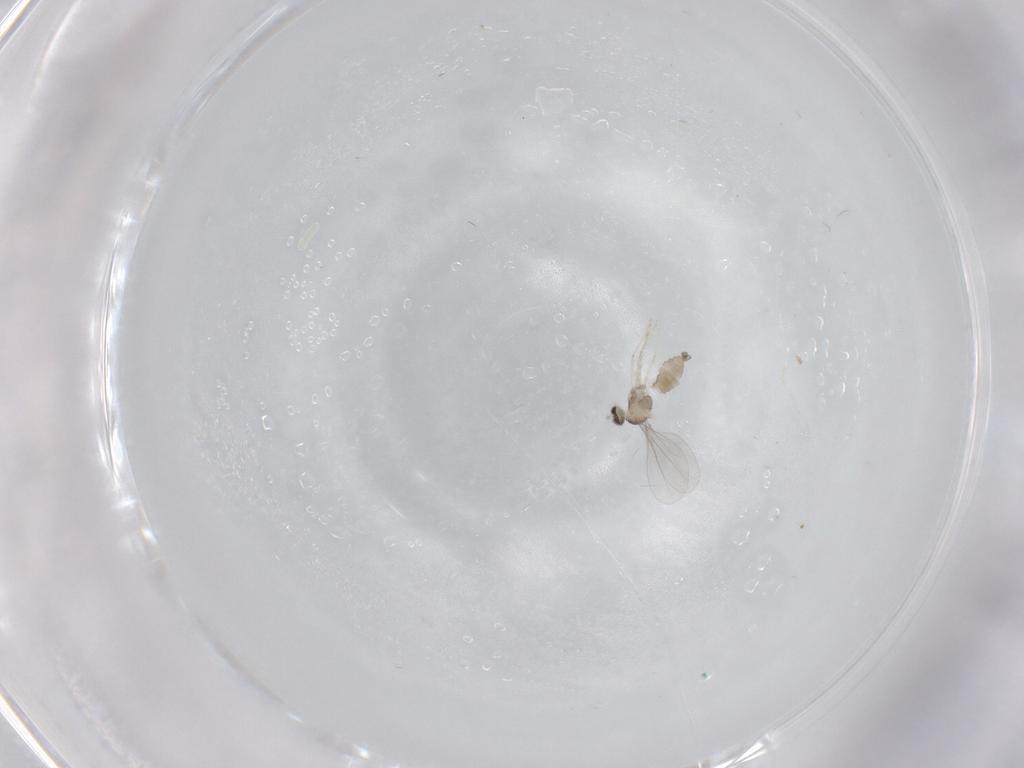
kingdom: Animalia
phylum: Arthropoda
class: Insecta
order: Diptera
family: Cecidomyiidae
